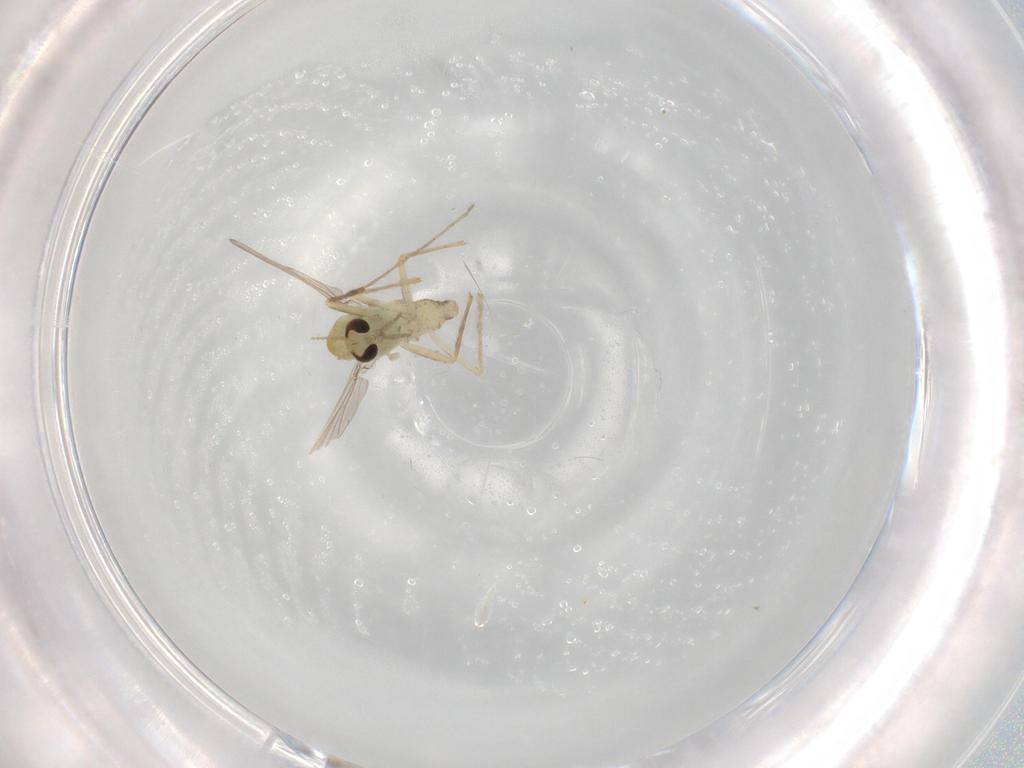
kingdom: Animalia
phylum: Arthropoda
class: Insecta
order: Diptera
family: Chironomidae
